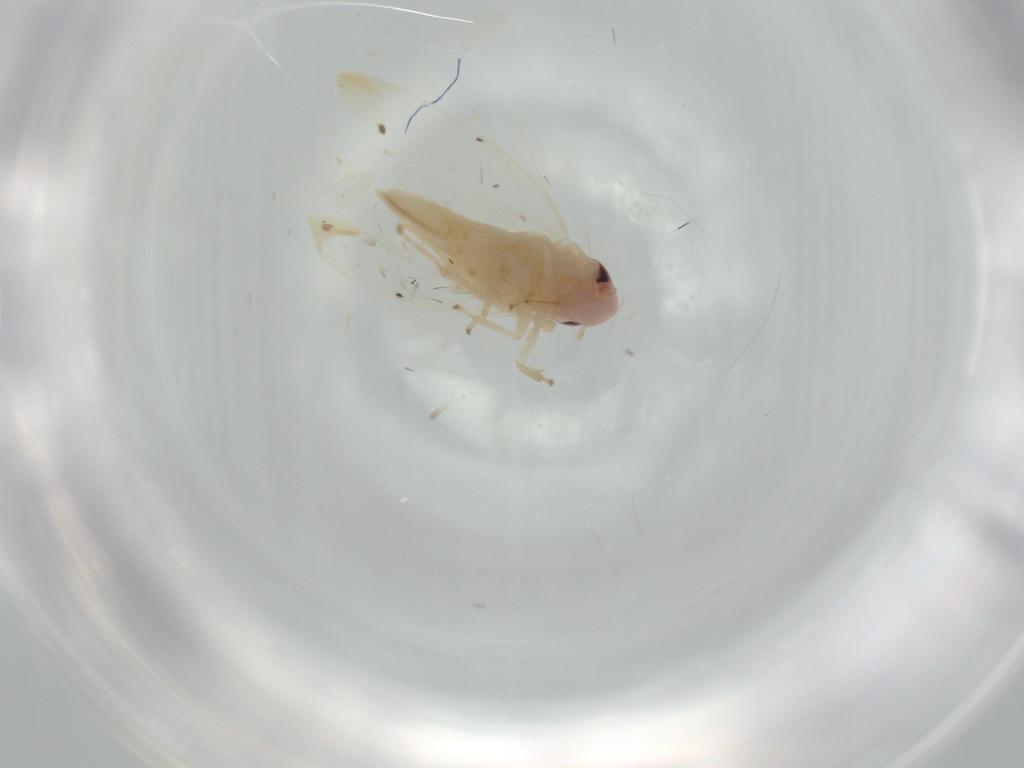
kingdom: Animalia
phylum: Arthropoda
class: Insecta
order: Hemiptera
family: Cicadellidae
